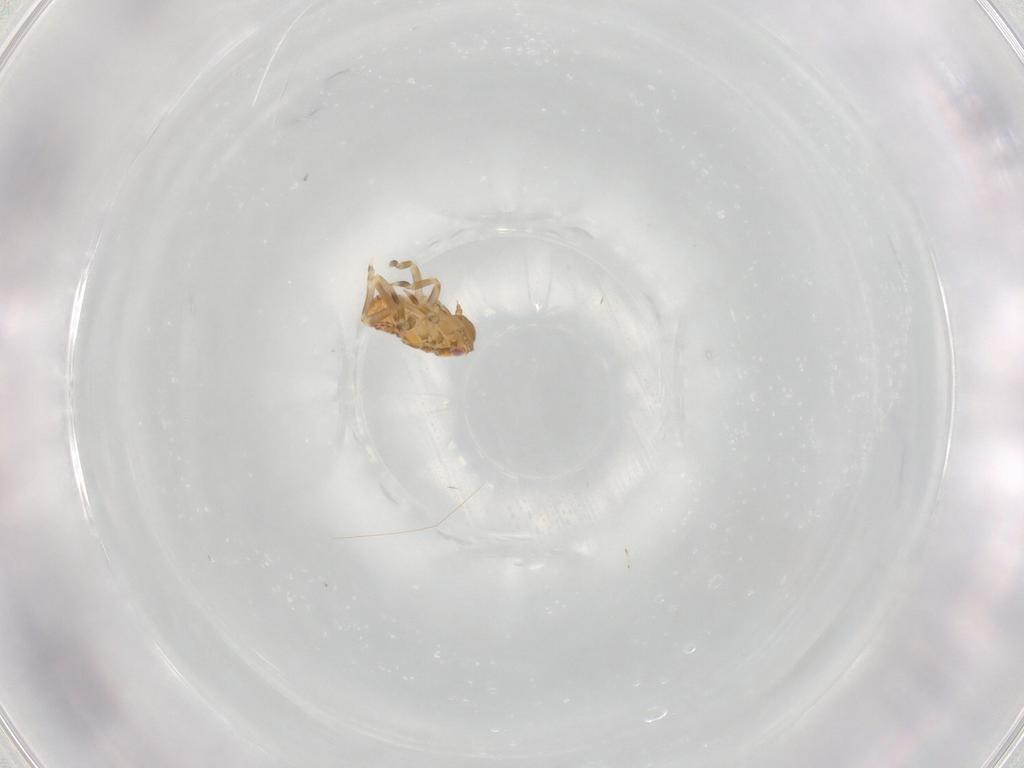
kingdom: Animalia
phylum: Arthropoda
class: Insecta
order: Hemiptera
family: Flatidae
